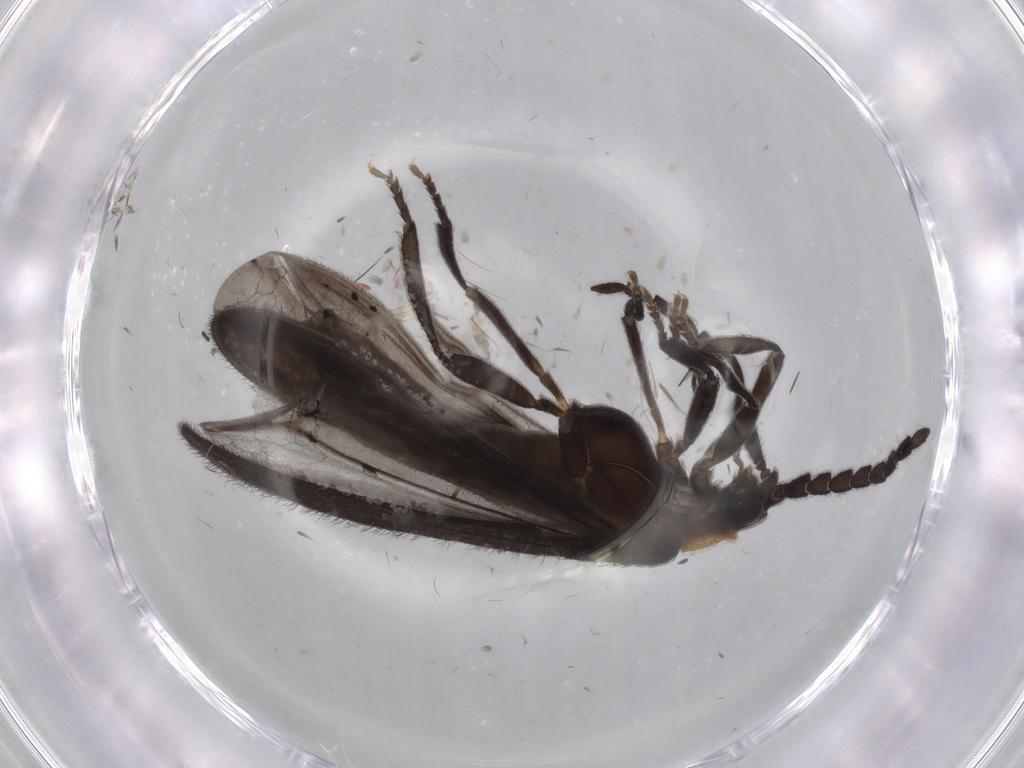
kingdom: Animalia
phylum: Arthropoda
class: Insecta
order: Coleoptera
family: Lycidae
